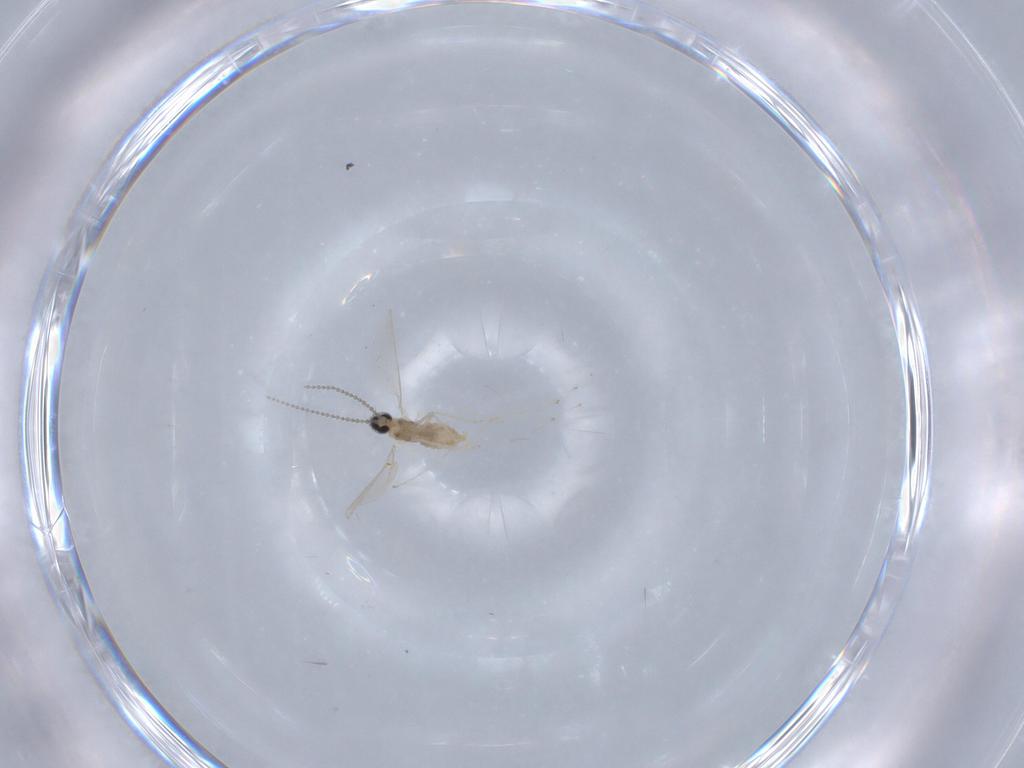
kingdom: Animalia
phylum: Arthropoda
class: Insecta
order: Diptera
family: Cecidomyiidae
